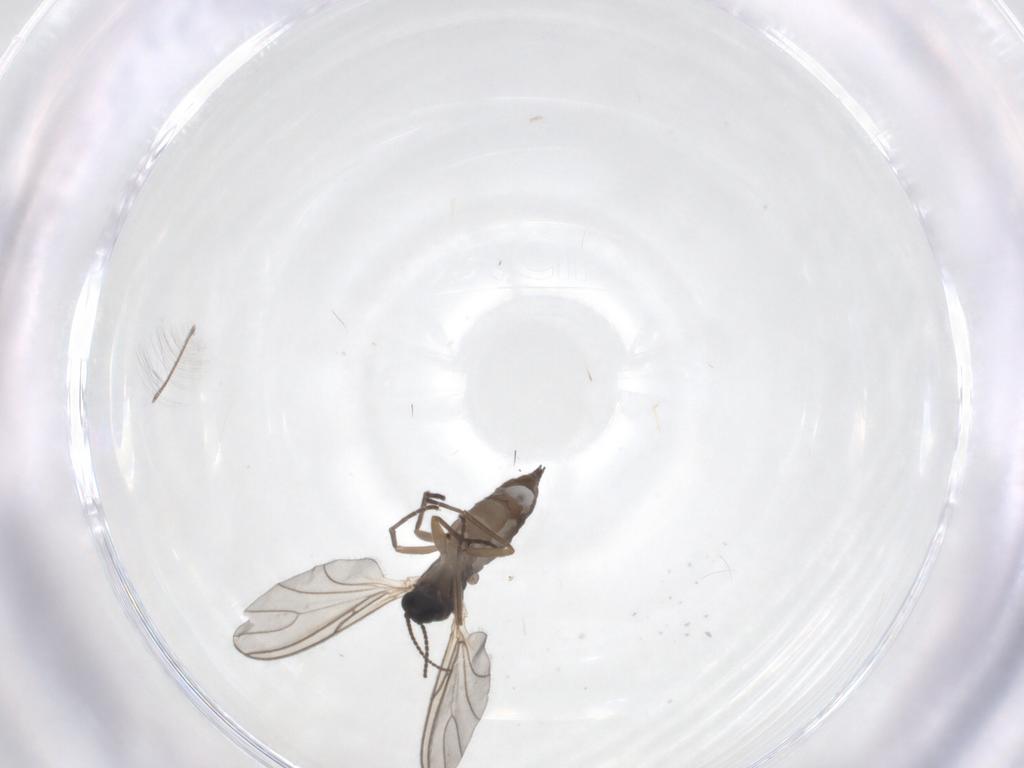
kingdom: Animalia
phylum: Arthropoda
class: Insecta
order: Diptera
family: Sciaridae
